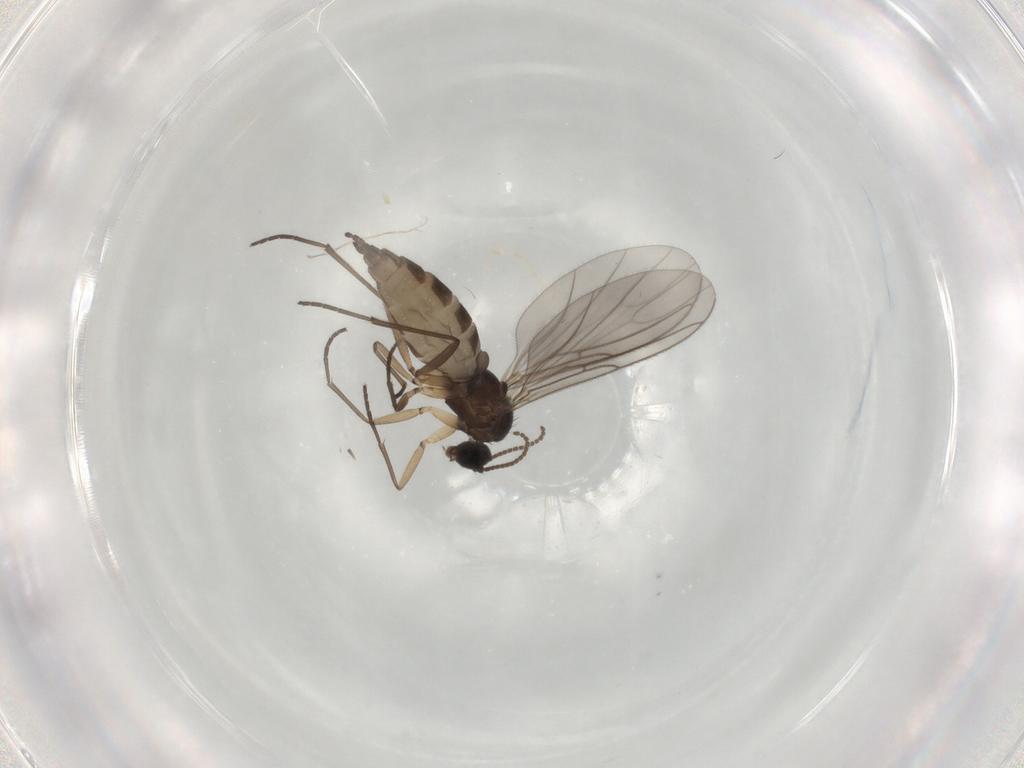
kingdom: Animalia
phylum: Arthropoda
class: Insecta
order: Diptera
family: Sciaridae
